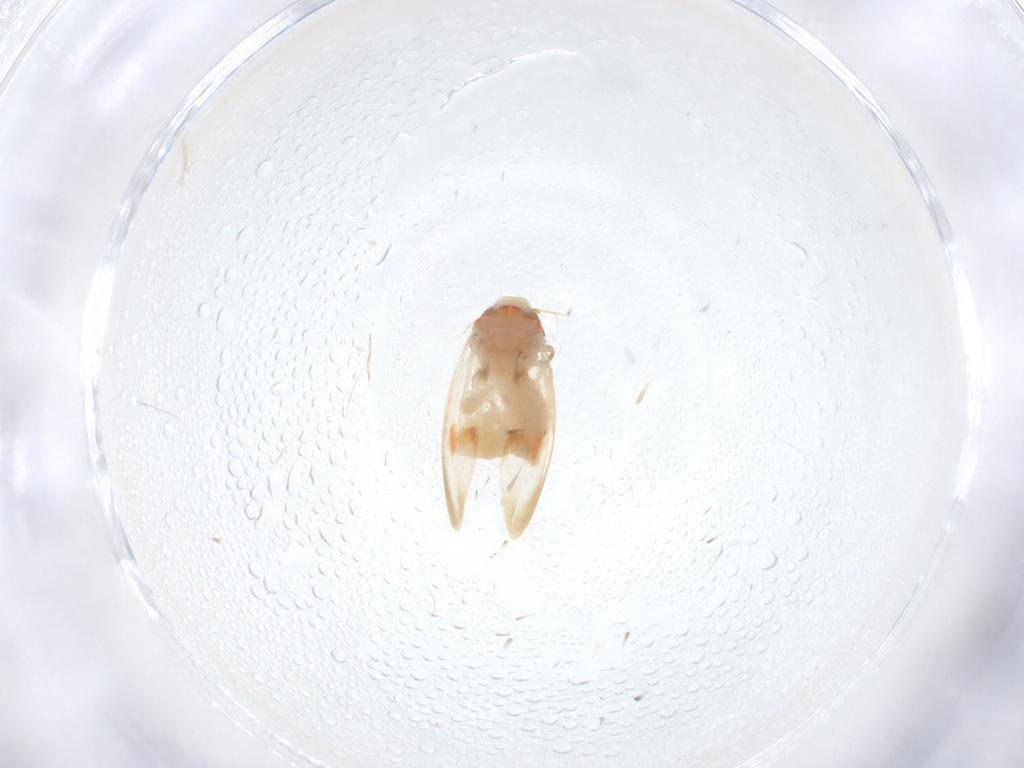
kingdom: Animalia
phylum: Arthropoda
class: Insecta
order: Hemiptera
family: Aleyrodidae
